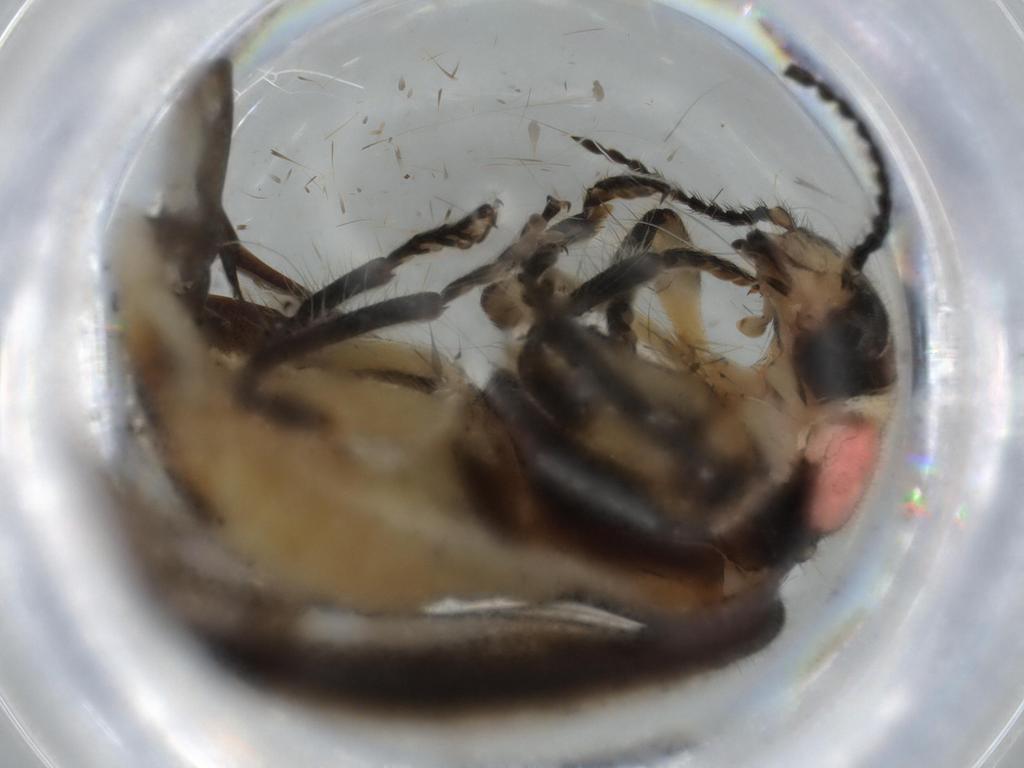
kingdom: Animalia
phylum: Arthropoda
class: Insecta
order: Coleoptera
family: Cleridae
